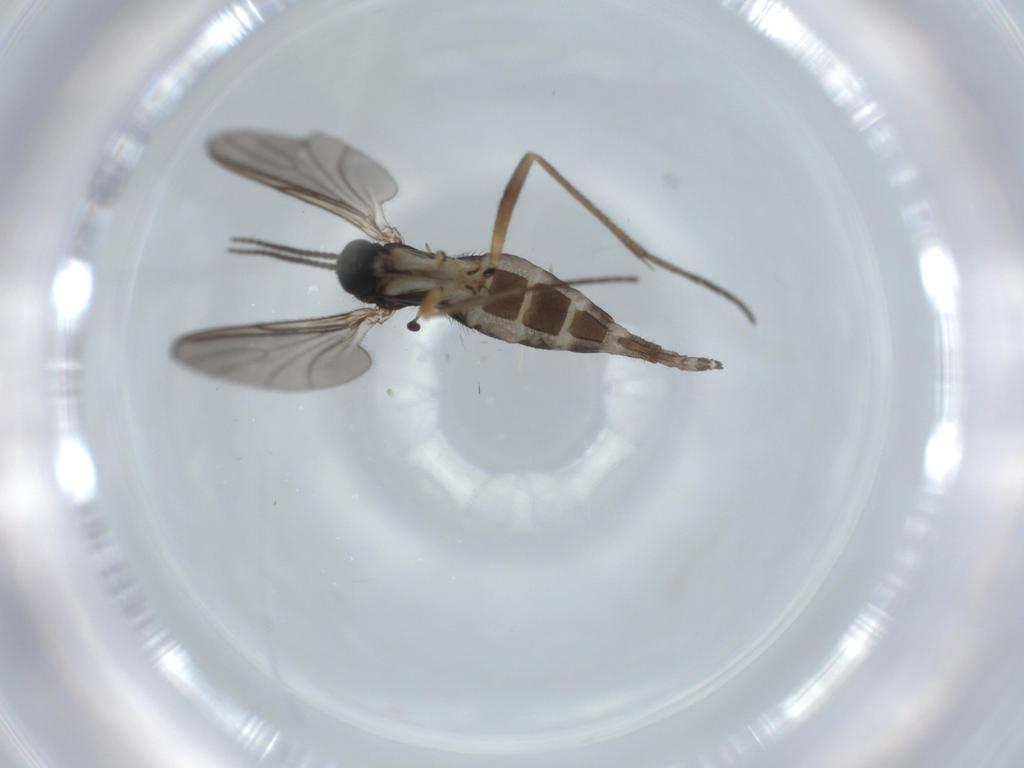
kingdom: Animalia
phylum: Arthropoda
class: Insecta
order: Diptera
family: Sciaridae
